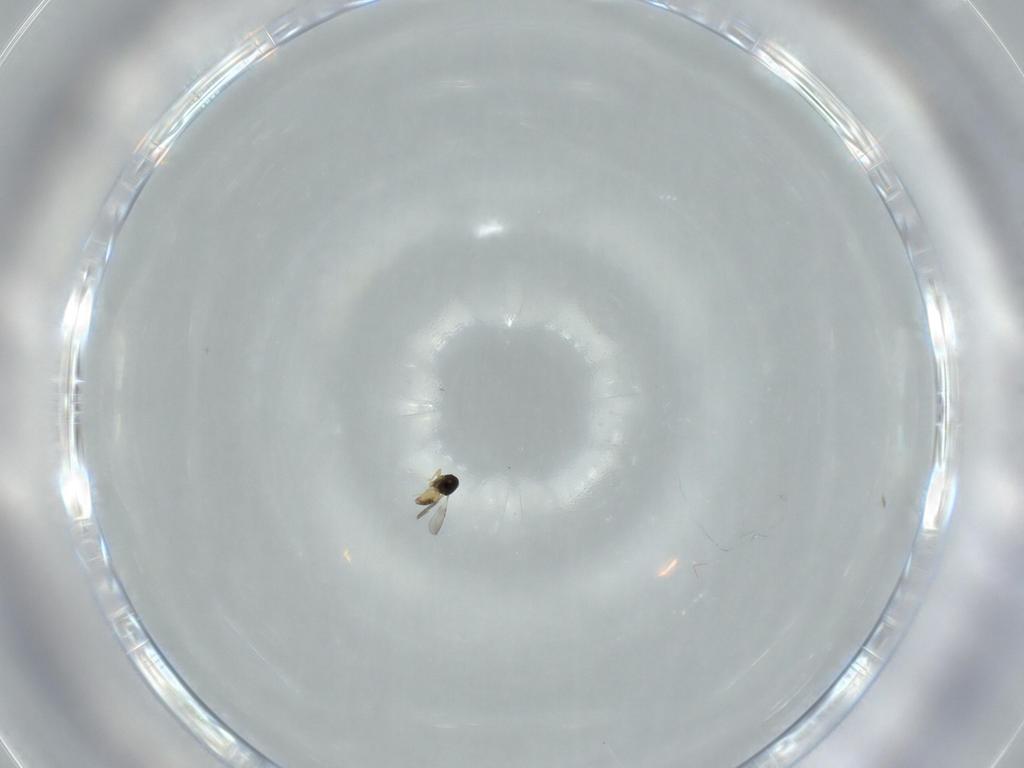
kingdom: Animalia
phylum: Arthropoda
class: Insecta
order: Hymenoptera
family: Ceraphronidae
